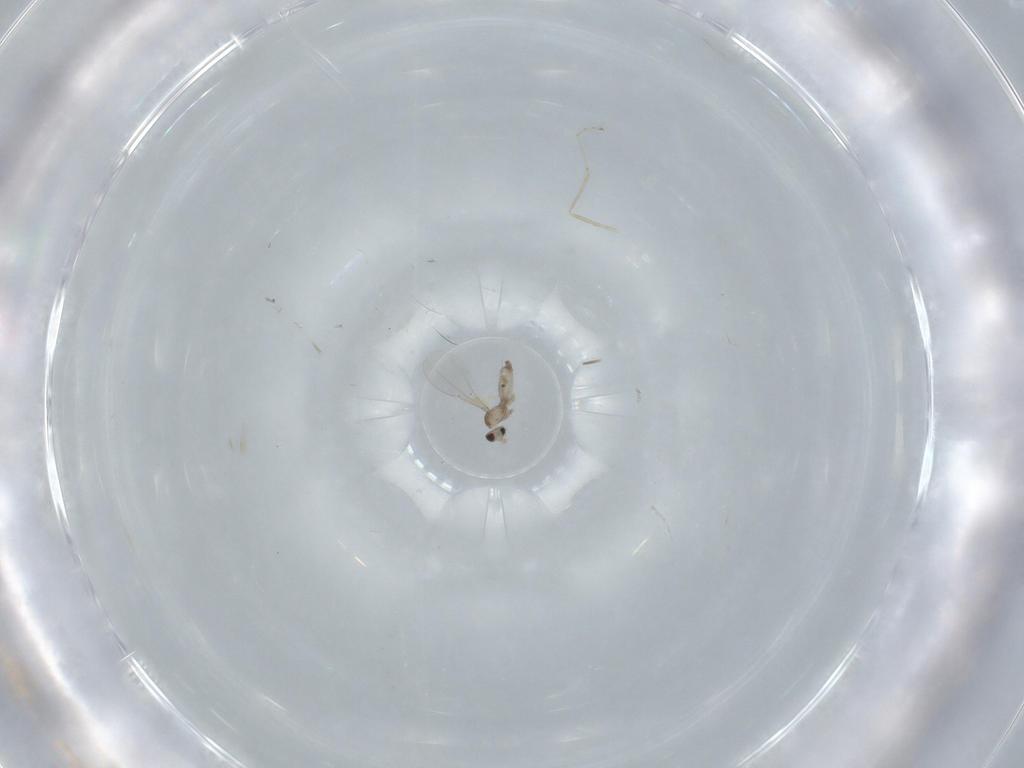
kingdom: Animalia
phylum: Arthropoda
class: Insecta
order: Diptera
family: Cecidomyiidae
